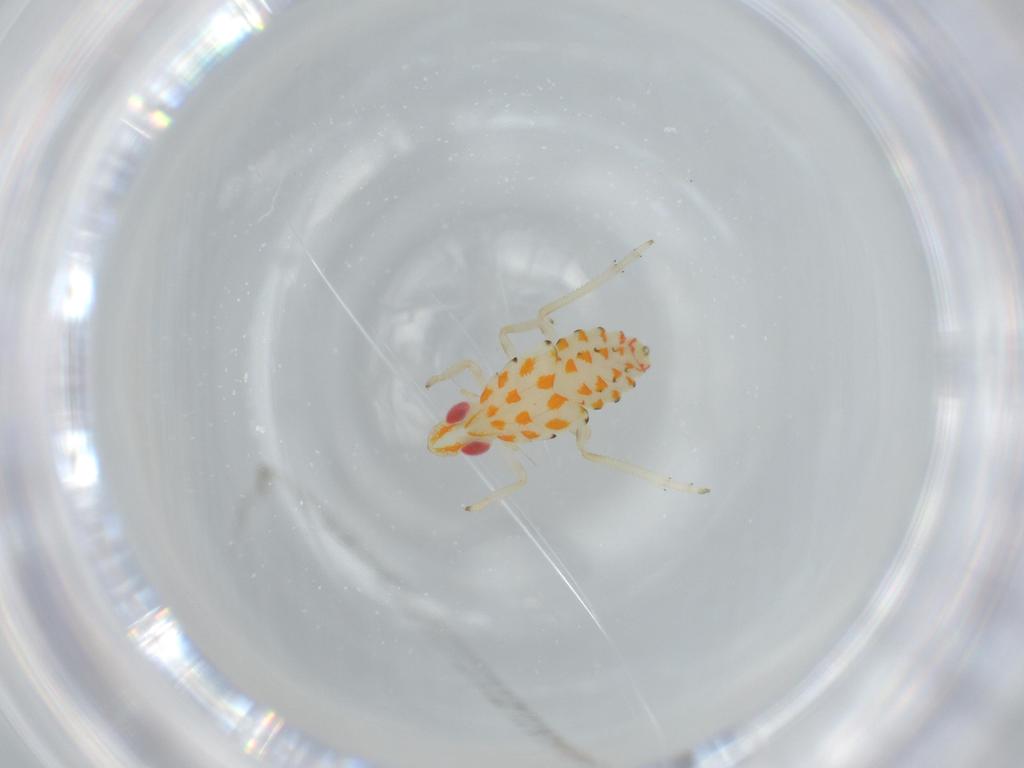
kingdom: Animalia
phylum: Arthropoda
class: Insecta
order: Hemiptera
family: Tropiduchidae
